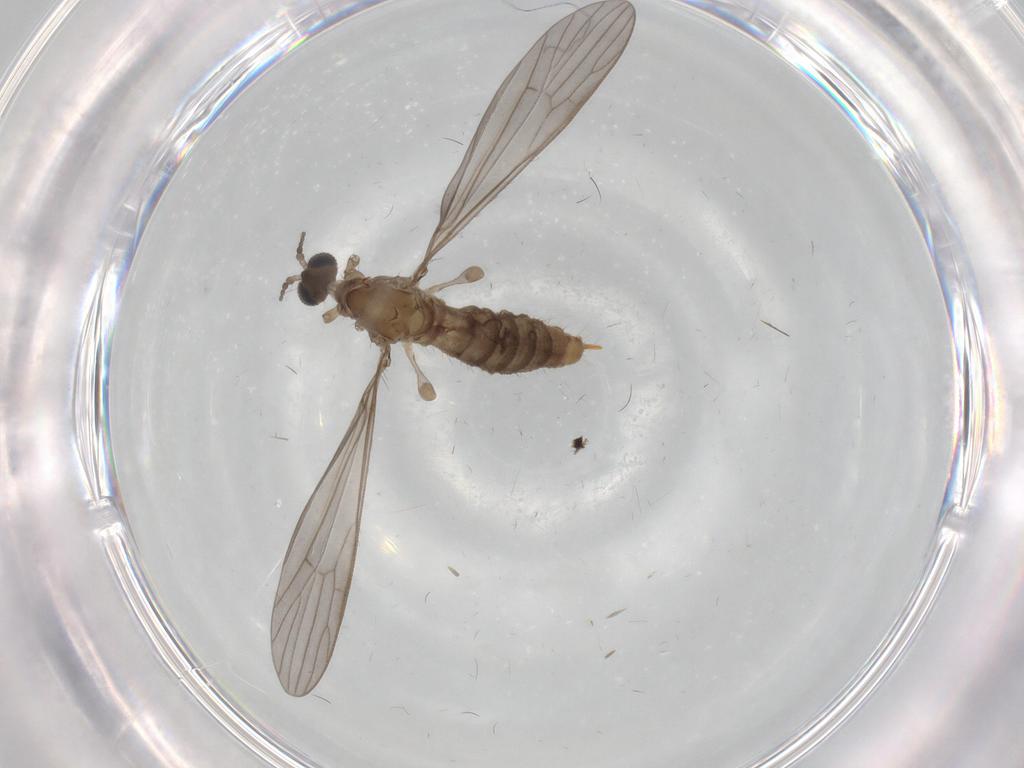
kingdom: Animalia
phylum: Arthropoda
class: Insecta
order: Diptera
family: Limoniidae
